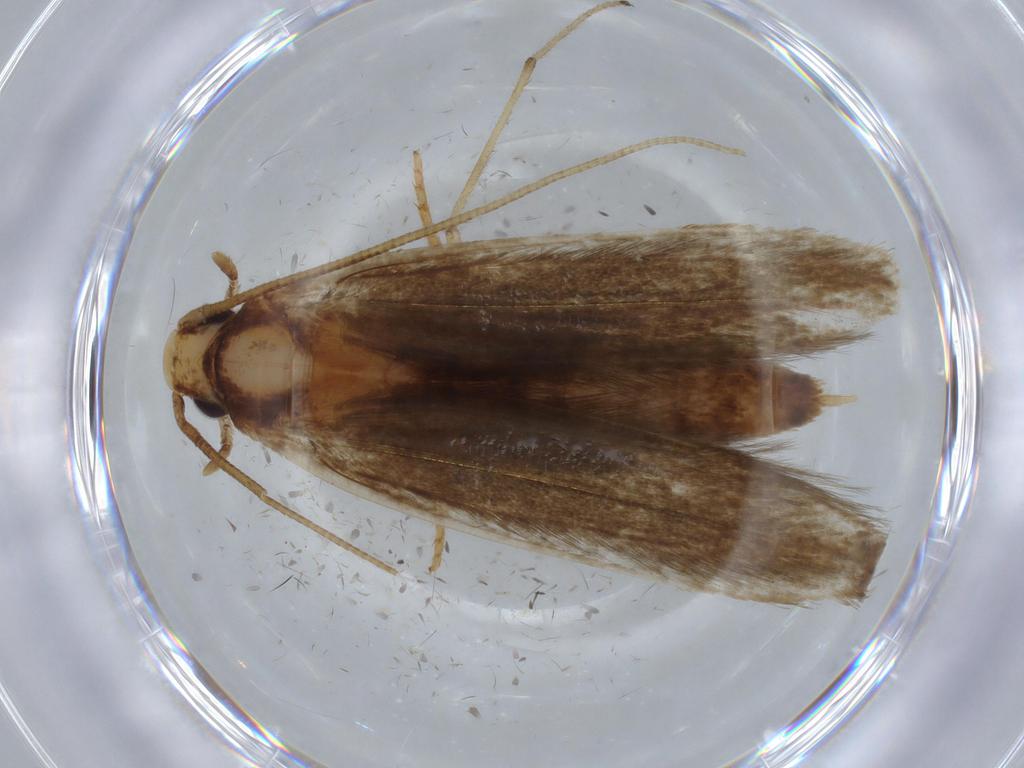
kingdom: Animalia
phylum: Arthropoda
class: Insecta
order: Lepidoptera
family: Tineidae
